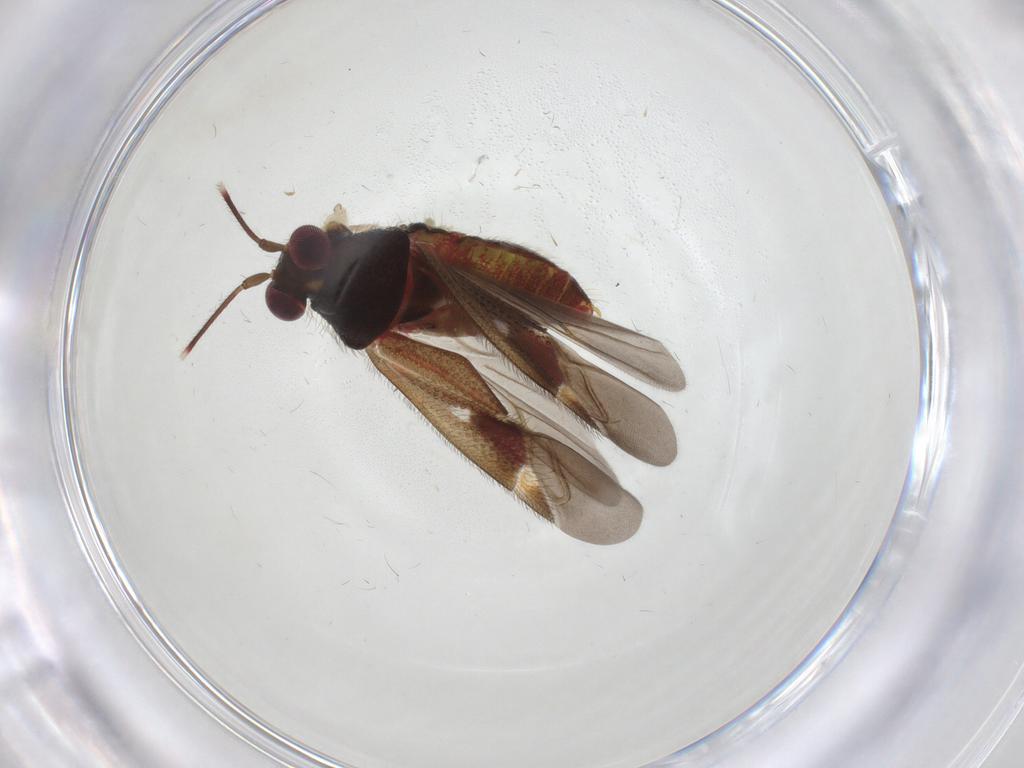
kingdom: Animalia
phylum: Arthropoda
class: Insecta
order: Hemiptera
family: Miridae
